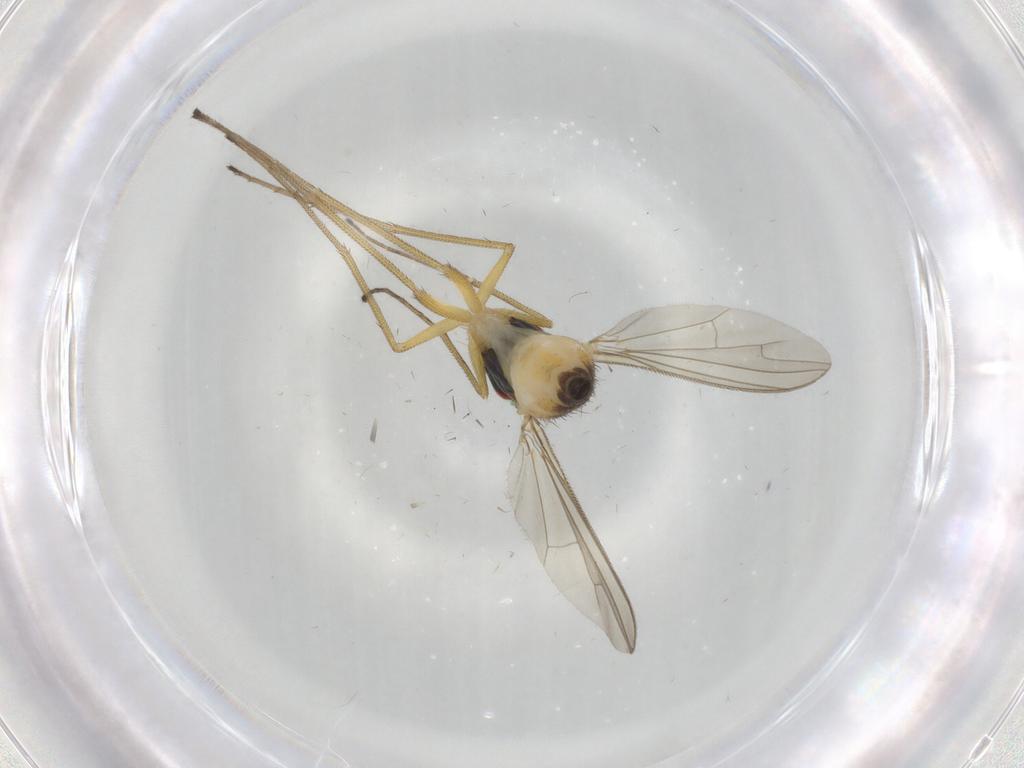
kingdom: Animalia
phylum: Arthropoda
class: Insecta
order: Diptera
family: Dolichopodidae
